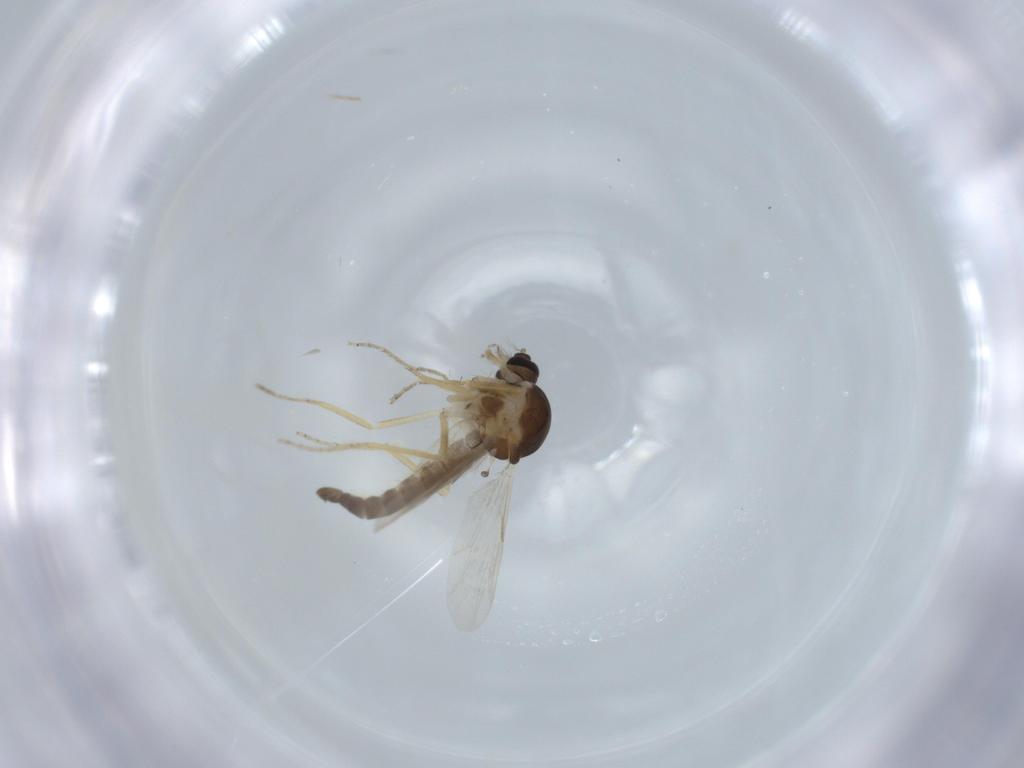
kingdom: Animalia
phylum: Arthropoda
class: Insecta
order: Diptera
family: Ceratopogonidae
